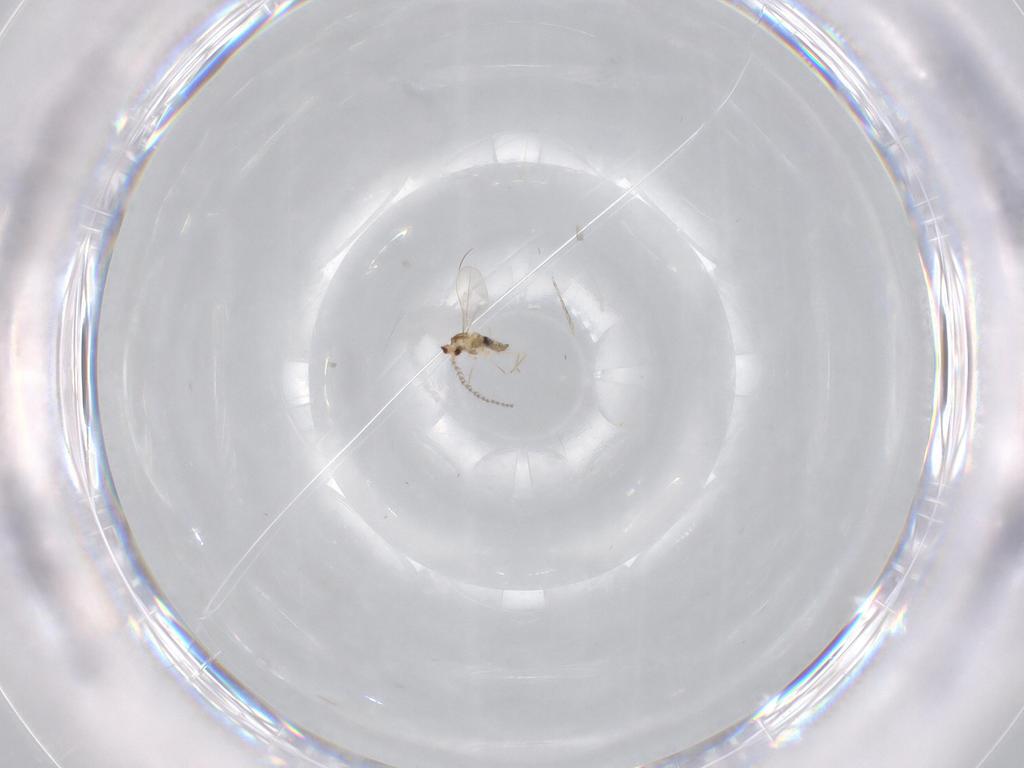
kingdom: Animalia
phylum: Arthropoda
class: Insecta
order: Diptera
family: Cecidomyiidae
